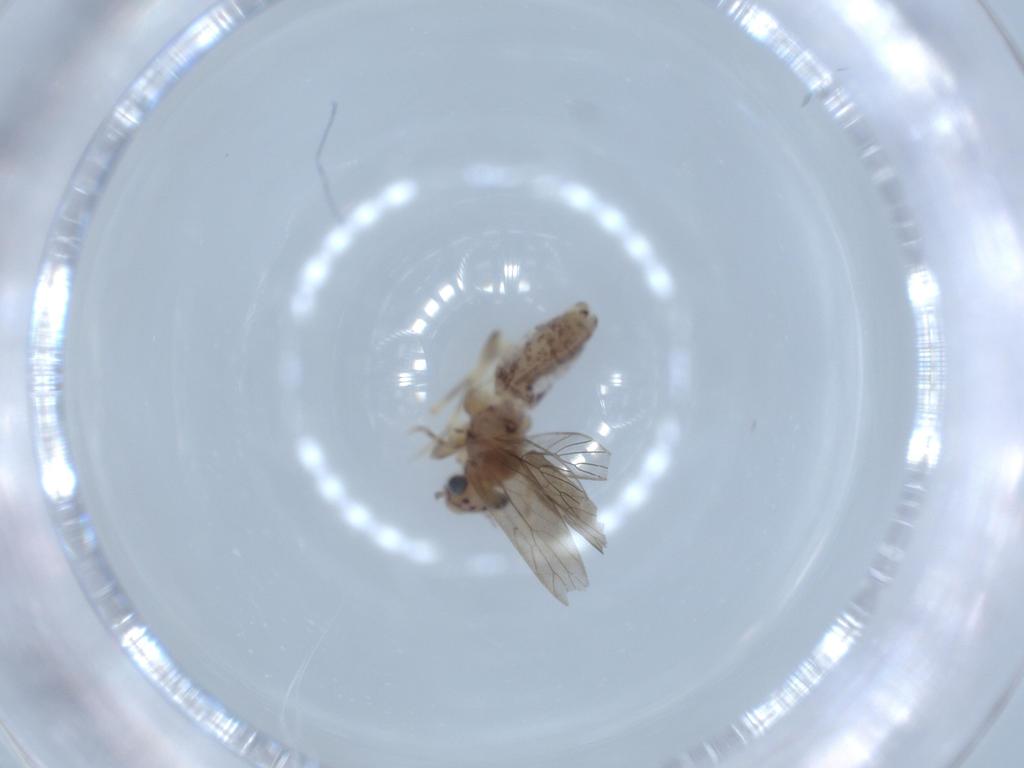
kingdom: Animalia
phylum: Arthropoda
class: Insecta
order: Psocodea
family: Lepidopsocidae
